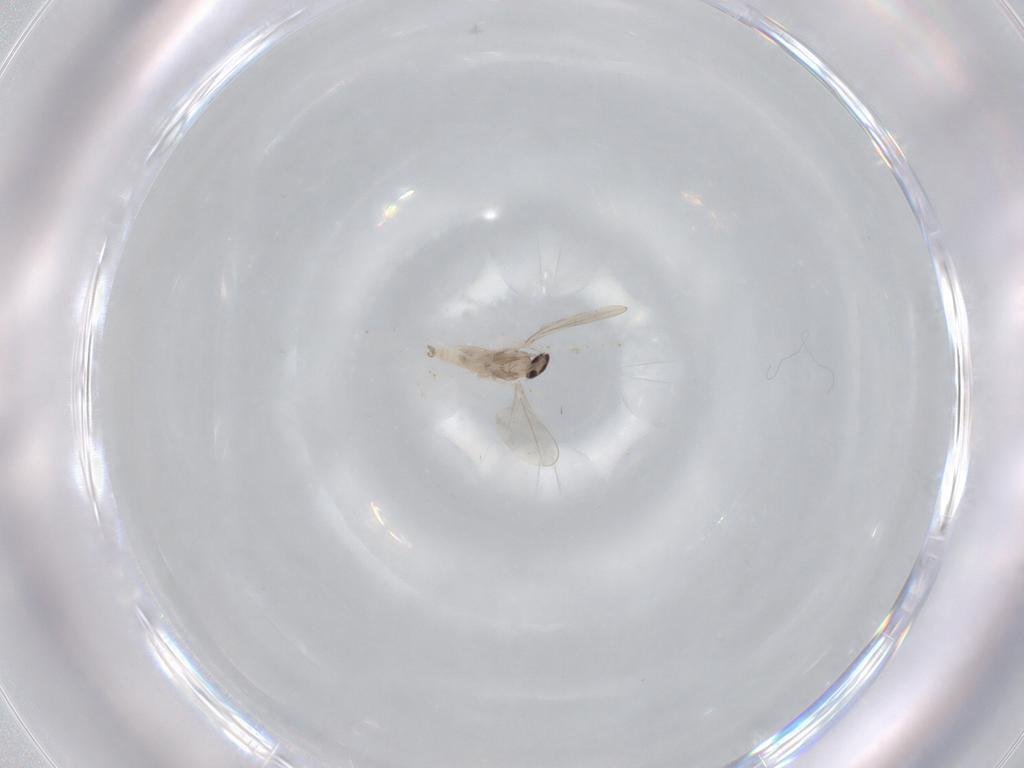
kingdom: Animalia
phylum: Arthropoda
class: Insecta
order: Diptera
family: Cecidomyiidae
